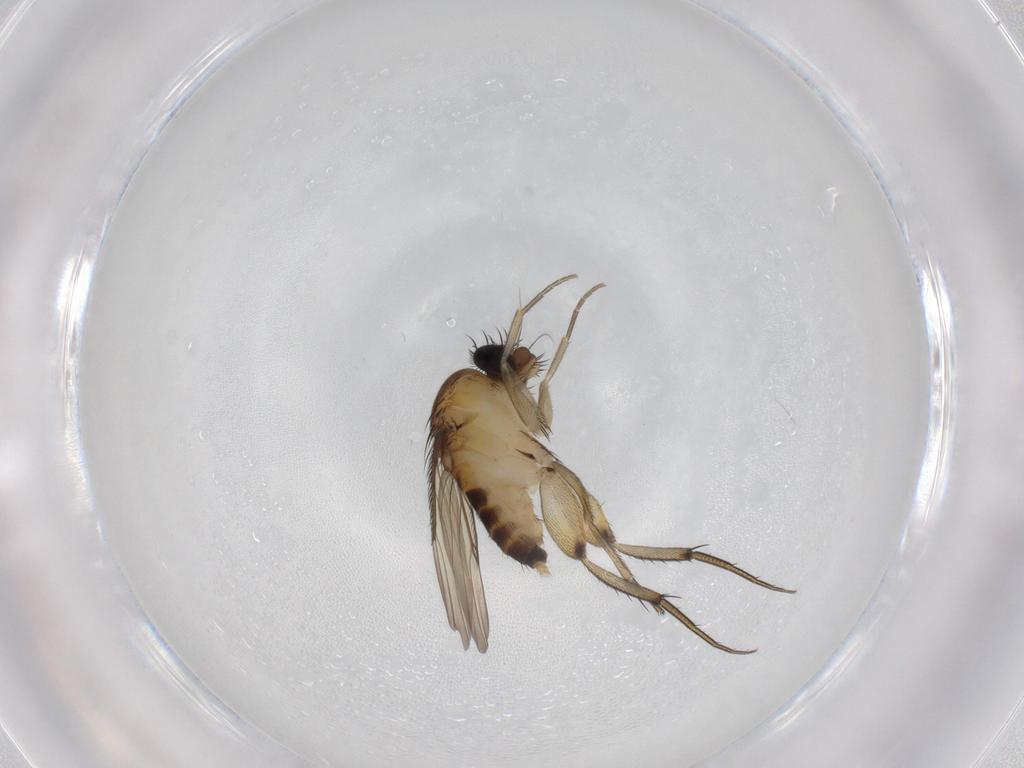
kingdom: Animalia
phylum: Arthropoda
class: Insecta
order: Diptera
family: Phoridae
